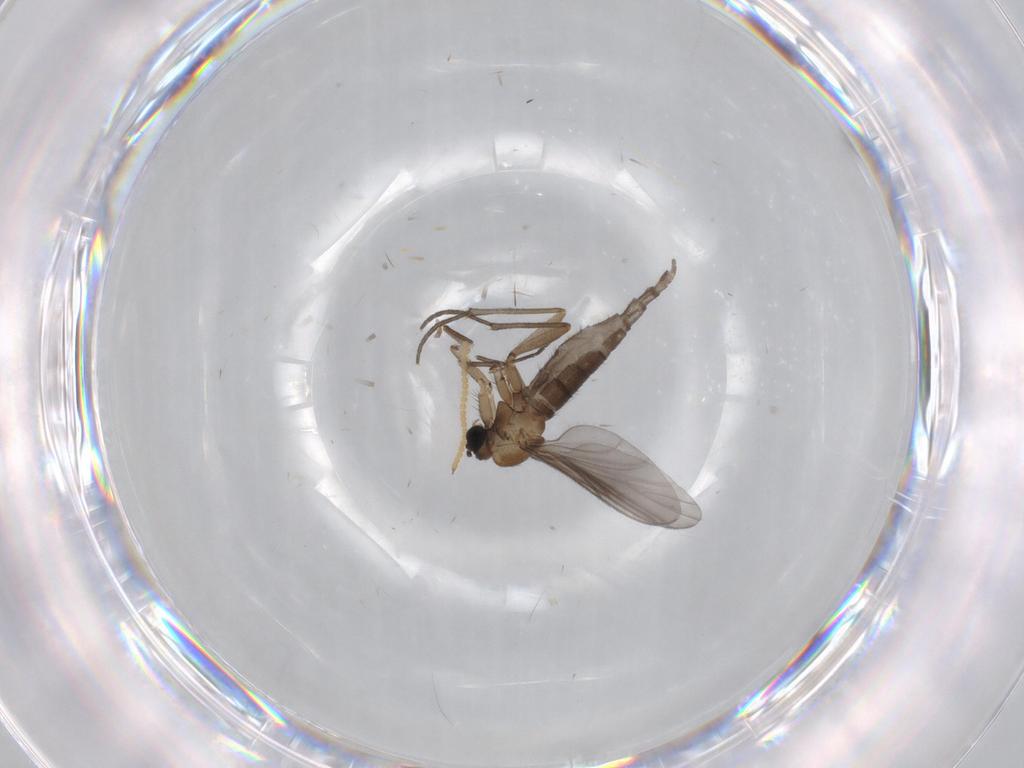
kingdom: Animalia
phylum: Arthropoda
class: Insecta
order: Diptera
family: Sciaridae
